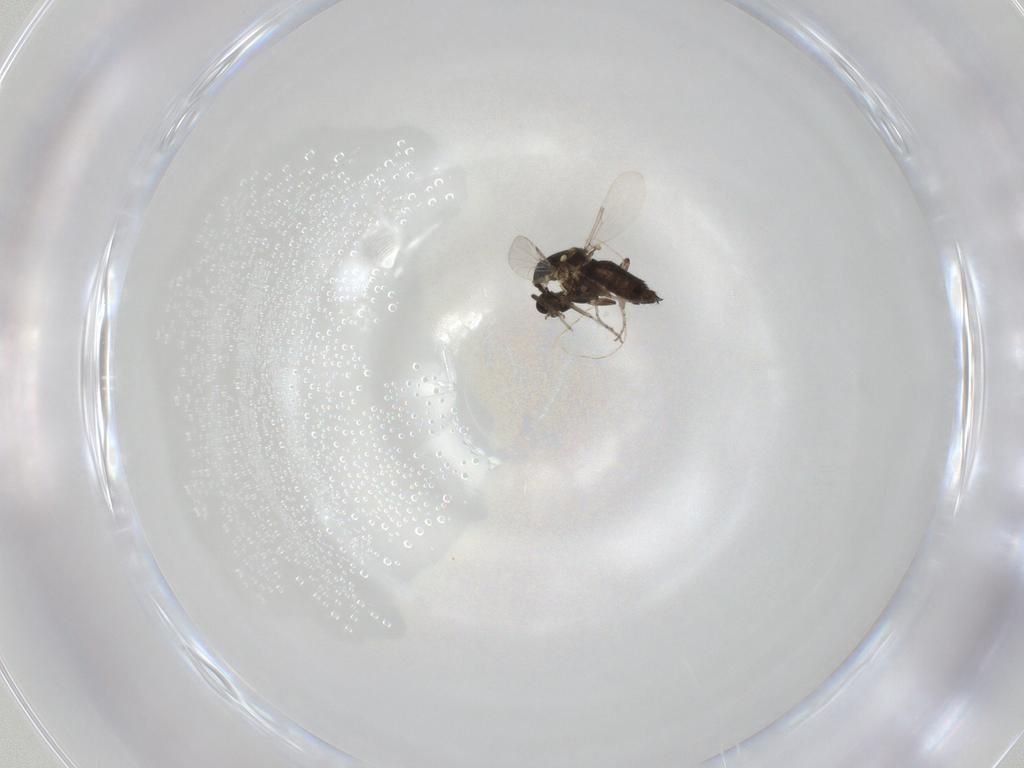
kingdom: Animalia
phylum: Arthropoda
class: Insecta
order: Diptera
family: Ceratopogonidae
